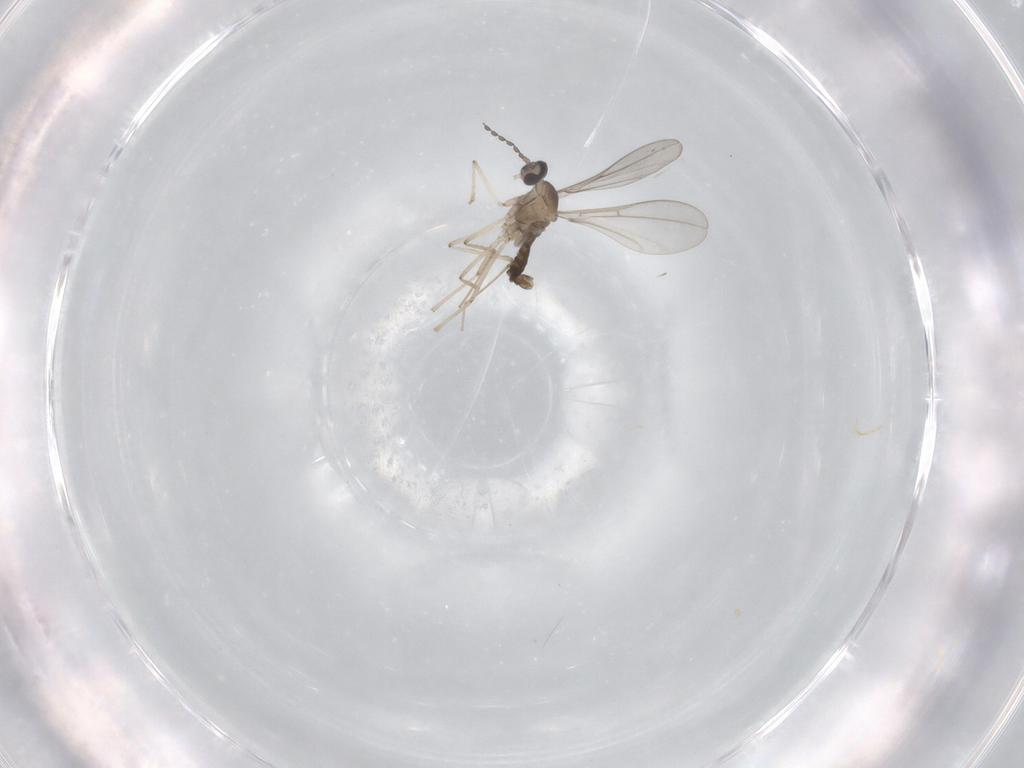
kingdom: Animalia
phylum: Arthropoda
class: Insecta
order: Diptera
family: Cecidomyiidae
